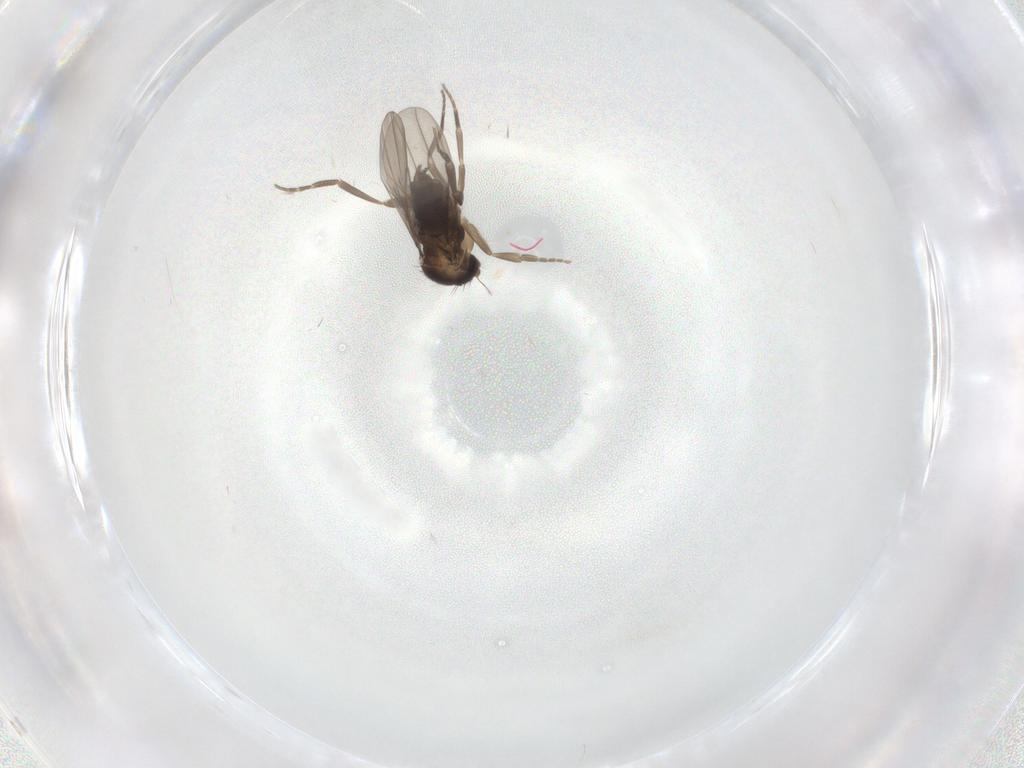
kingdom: Animalia
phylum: Arthropoda
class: Insecta
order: Diptera
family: Phoridae
